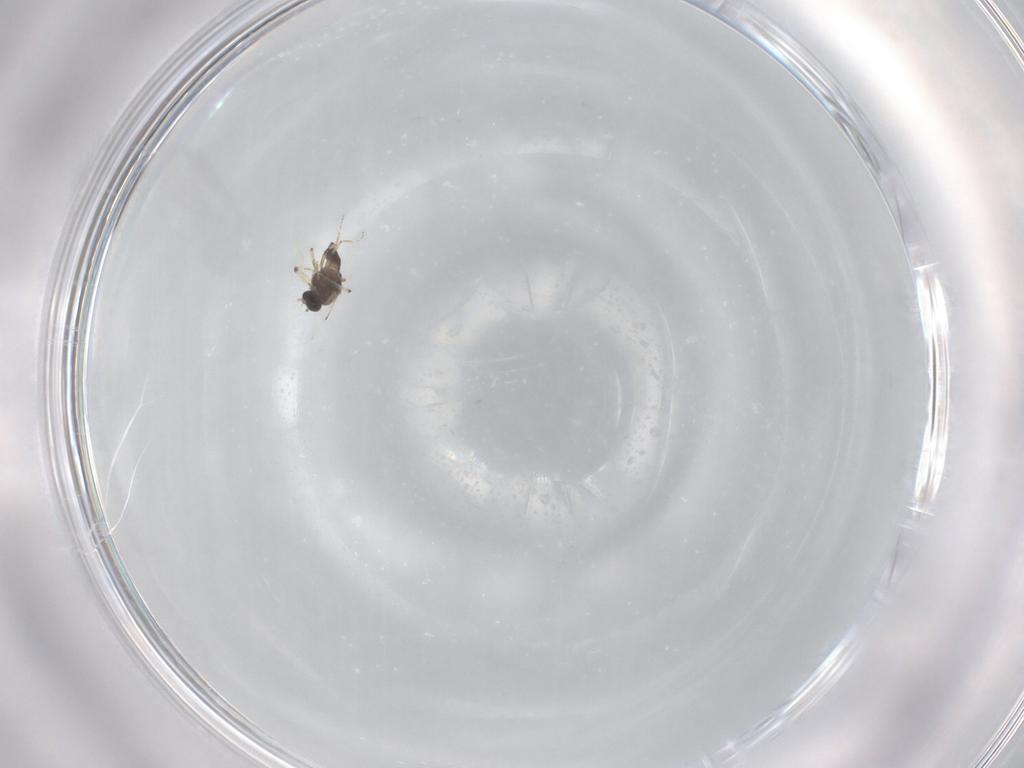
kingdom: Animalia
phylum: Arthropoda
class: Insecta
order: Diptera
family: Ceratopogonidae
